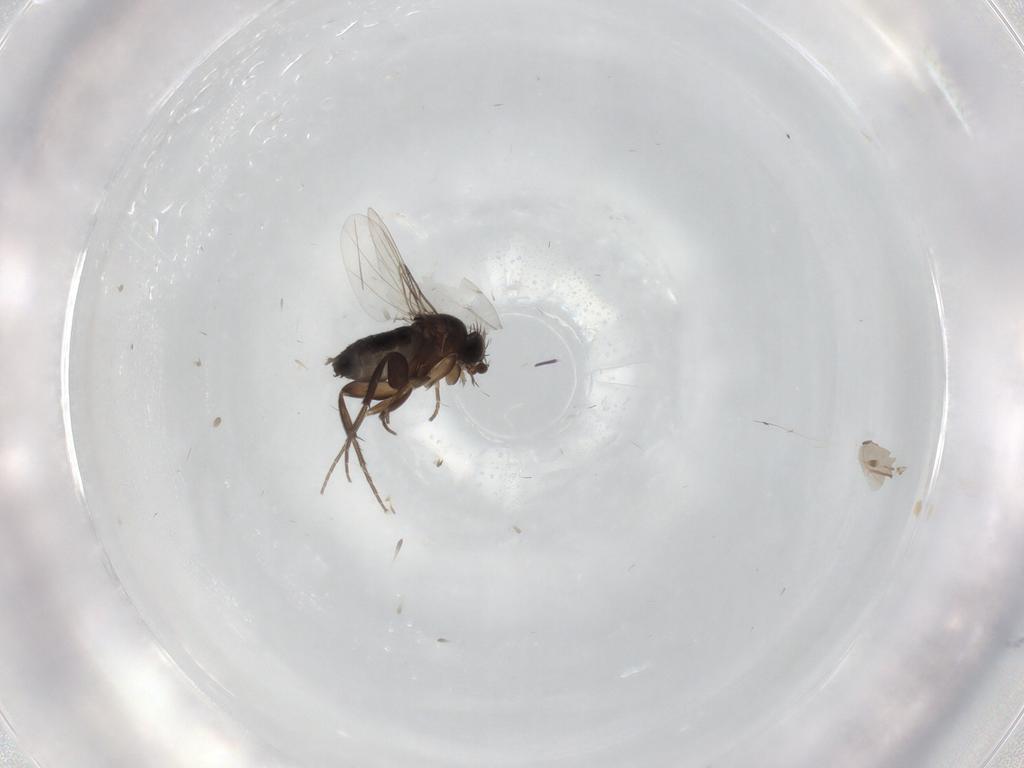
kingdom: Animalia
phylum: Arthropoda
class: Insecta
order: Diptera
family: Phoridae
